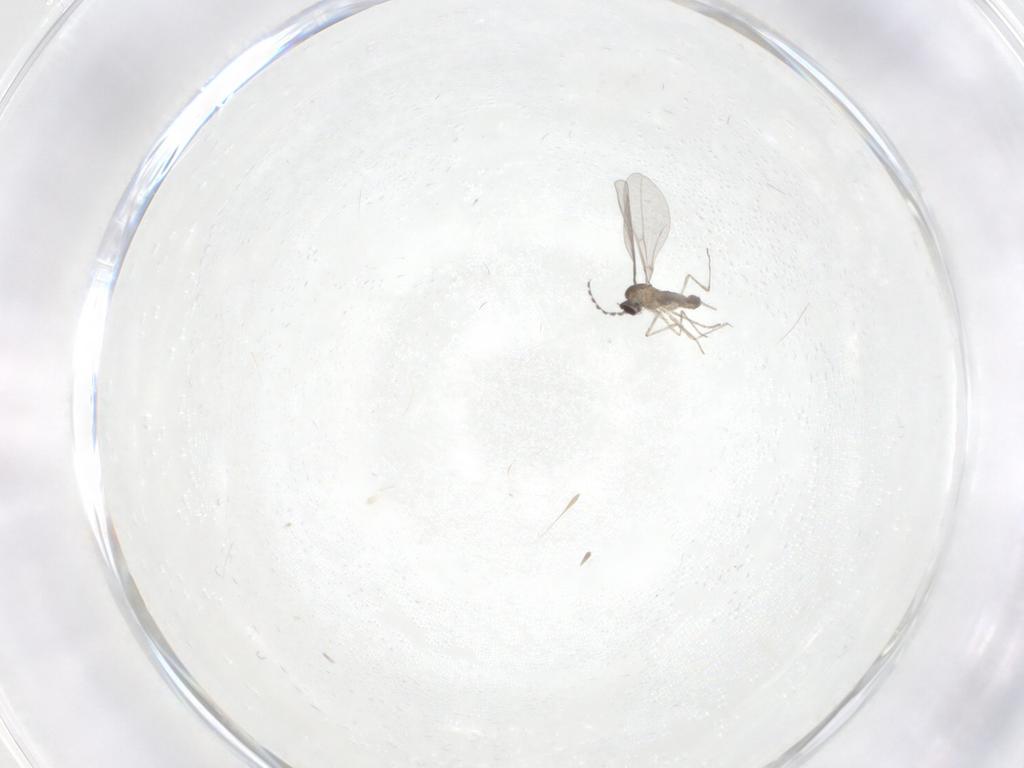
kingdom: Animalia
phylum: Arthropoda
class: Insecta
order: Diptera
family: Cecidomyiidae
